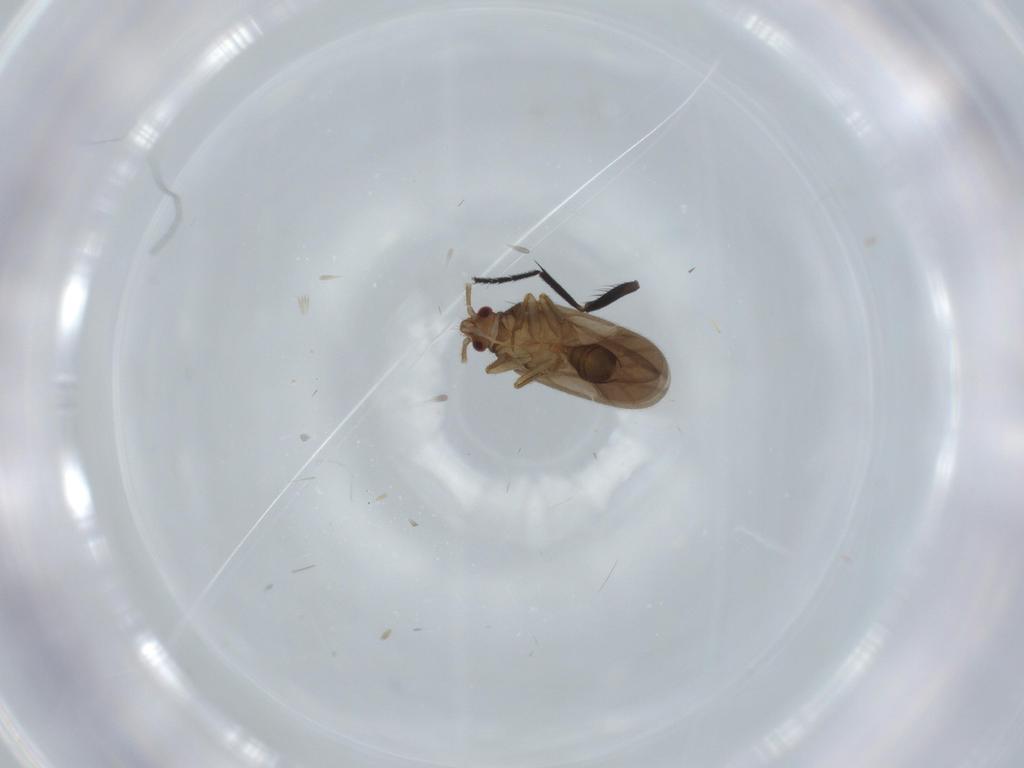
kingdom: Animalia
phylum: Arthropoda
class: Insecta
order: Hemiptera
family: Ceratocombidae
